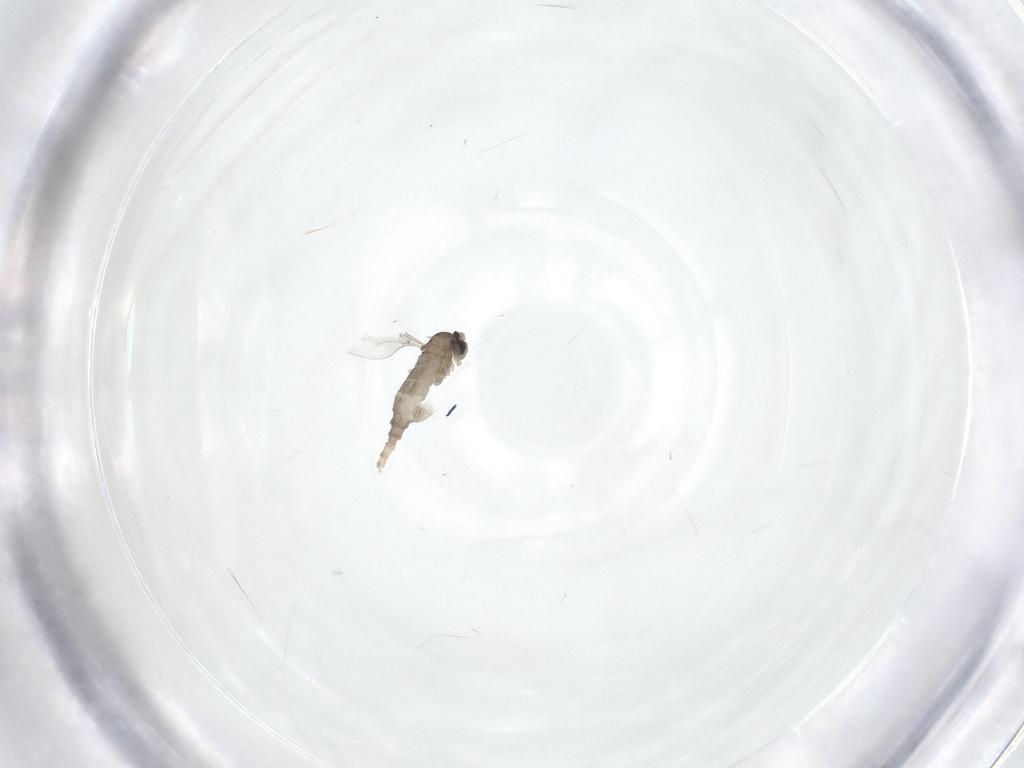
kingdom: Animalia
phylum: Arthropoda
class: Insecta
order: Diptera
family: Cecidomyiidae
